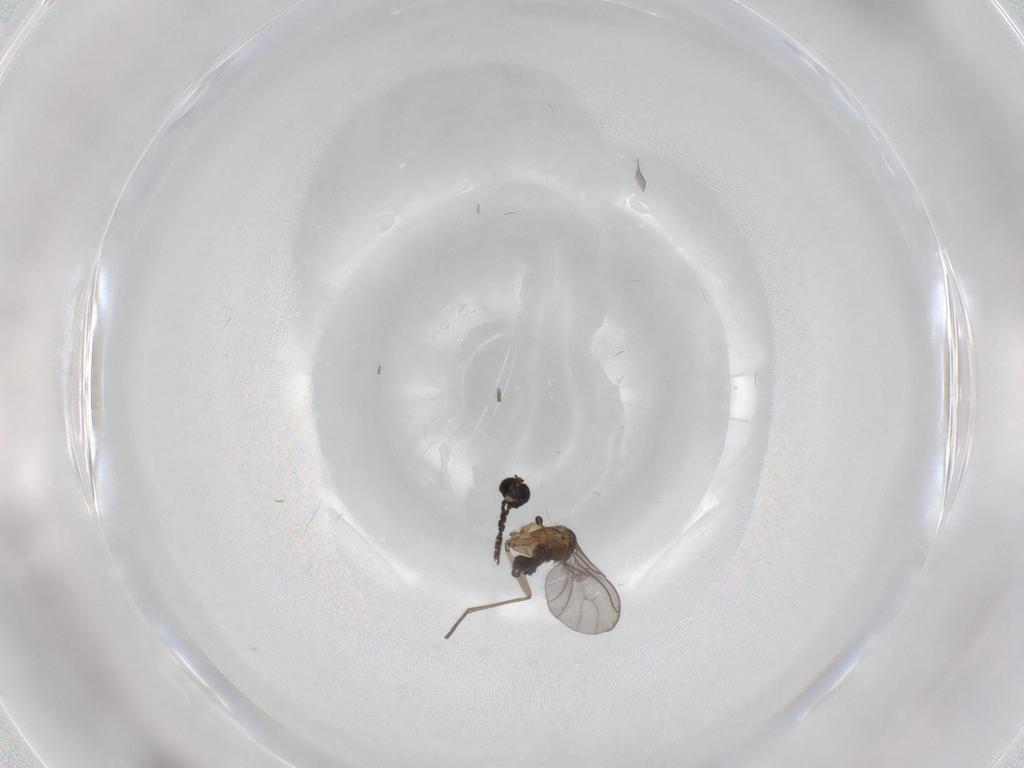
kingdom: Animalia
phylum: Arthropoda
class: Insecta
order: Diptera
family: Sciaridae
